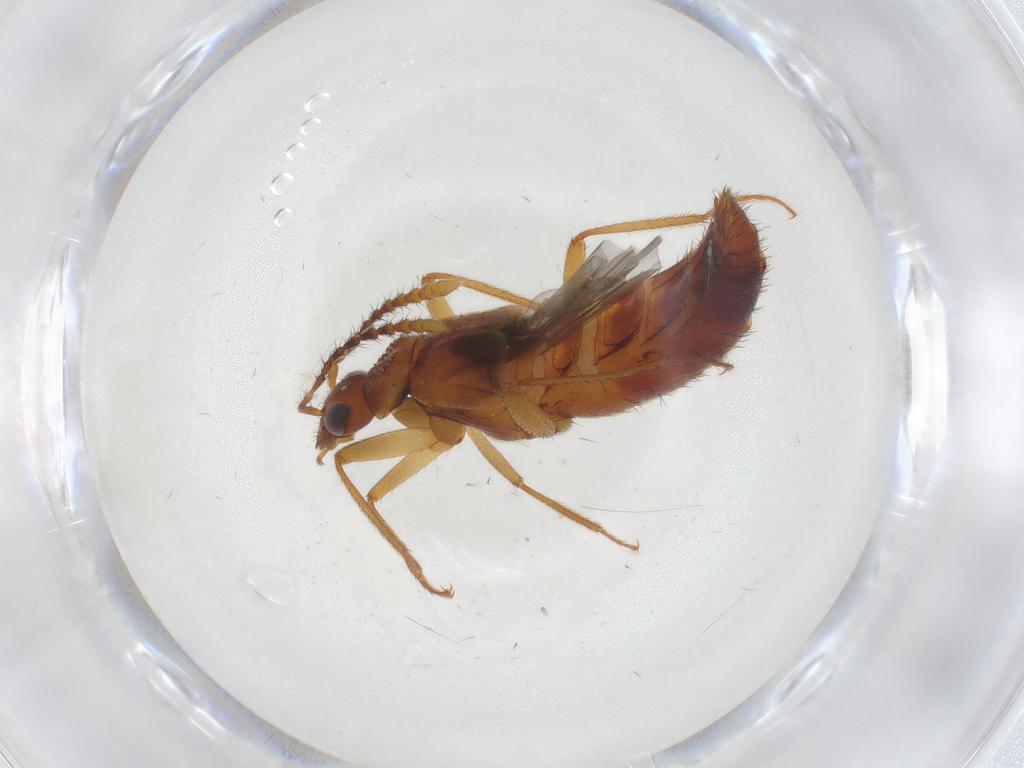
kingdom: Animalia
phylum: Arthropoda
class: Insecta
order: Coleoptera
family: Staphylinidae
